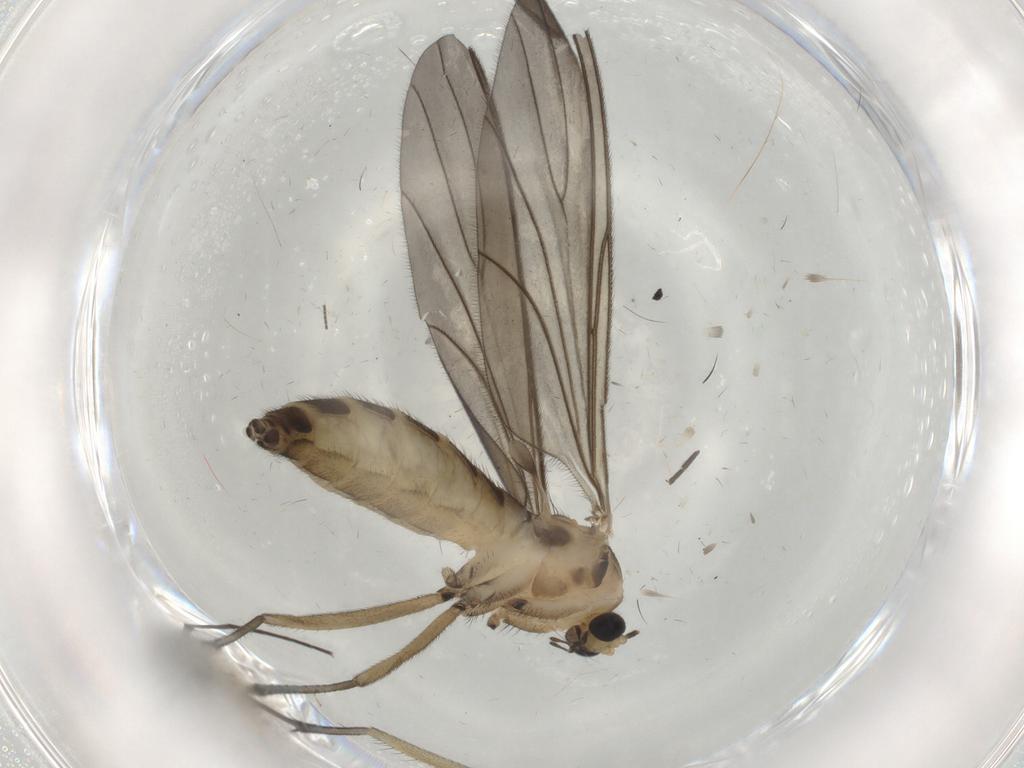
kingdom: Animalia
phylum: Arthropoda
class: Insecta
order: Diptera
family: Sciaridae
